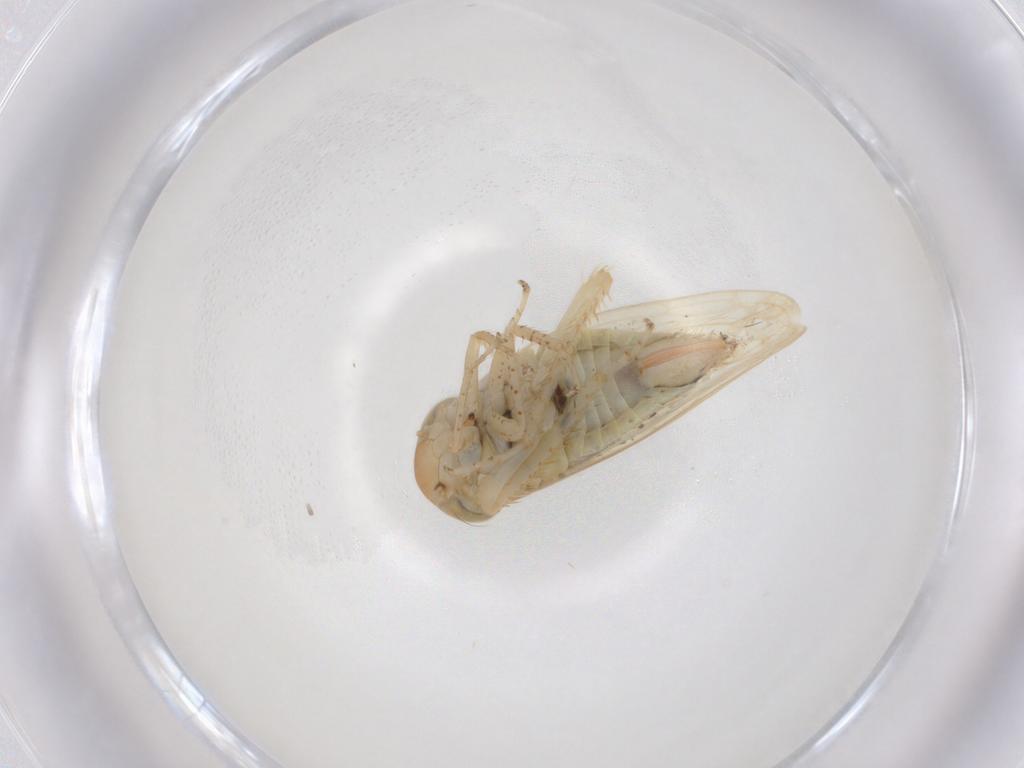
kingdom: Animalia
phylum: Arthropoda
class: Insecta
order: Hemiptera
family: Cicadellidae
